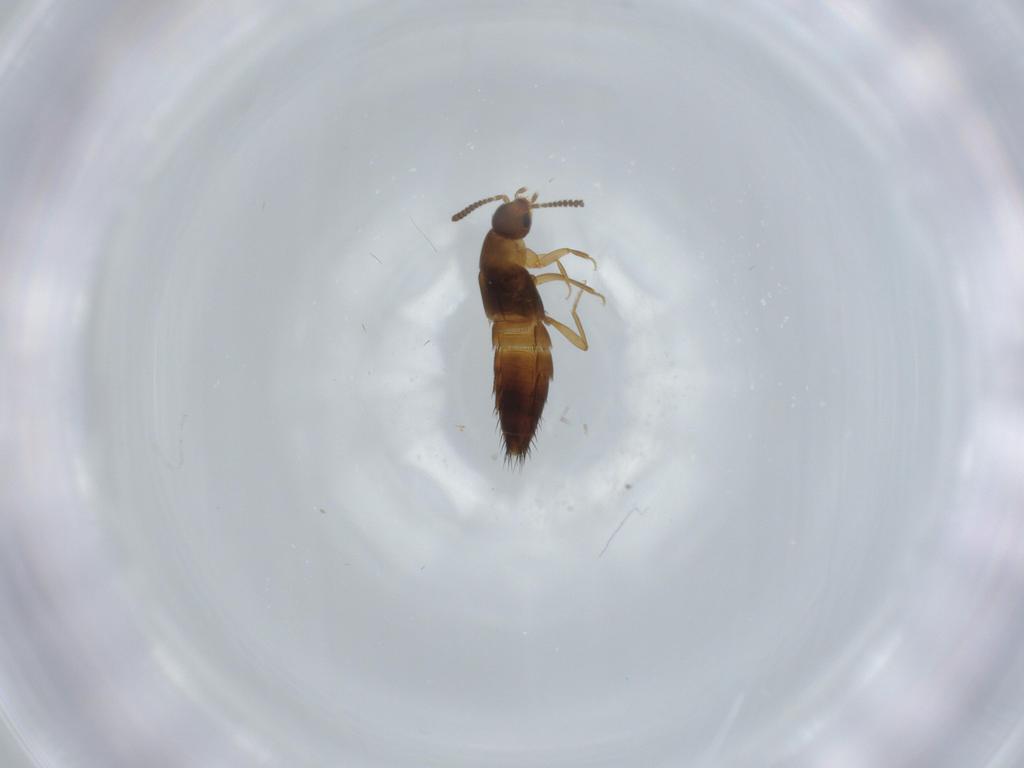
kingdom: Animalia
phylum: Arthropoda
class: Insecta
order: Coleoptera
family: Staphylinidae
